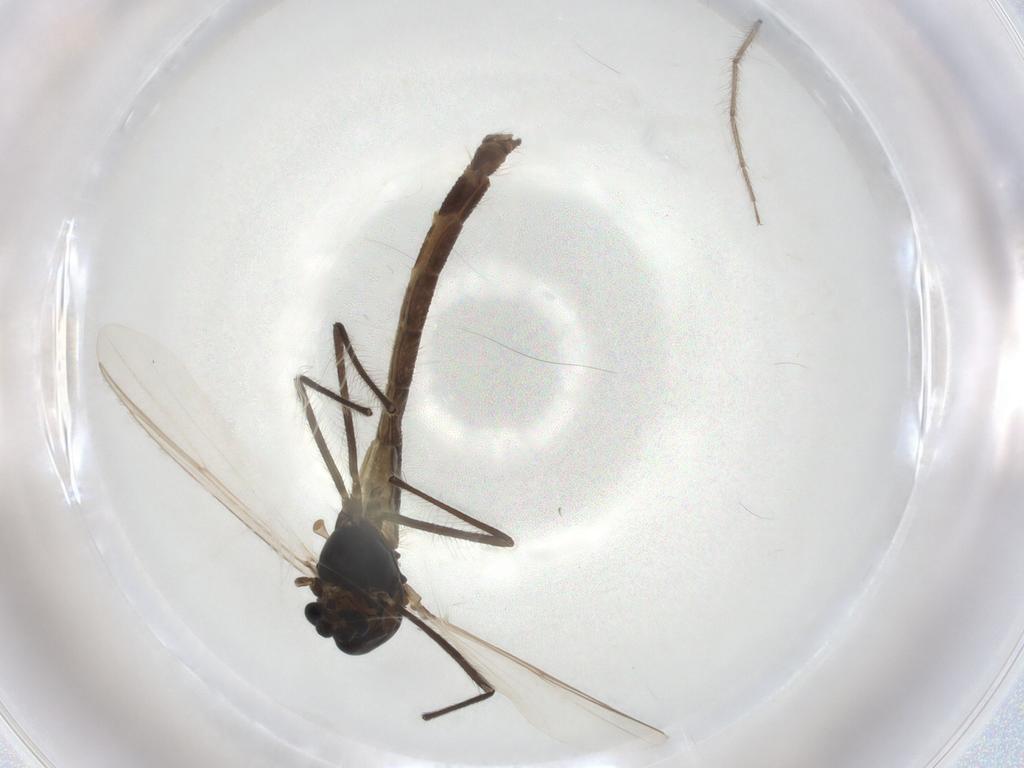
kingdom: Animalia
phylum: Arthropoda
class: Insecta
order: Diptera
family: Chironomidae
